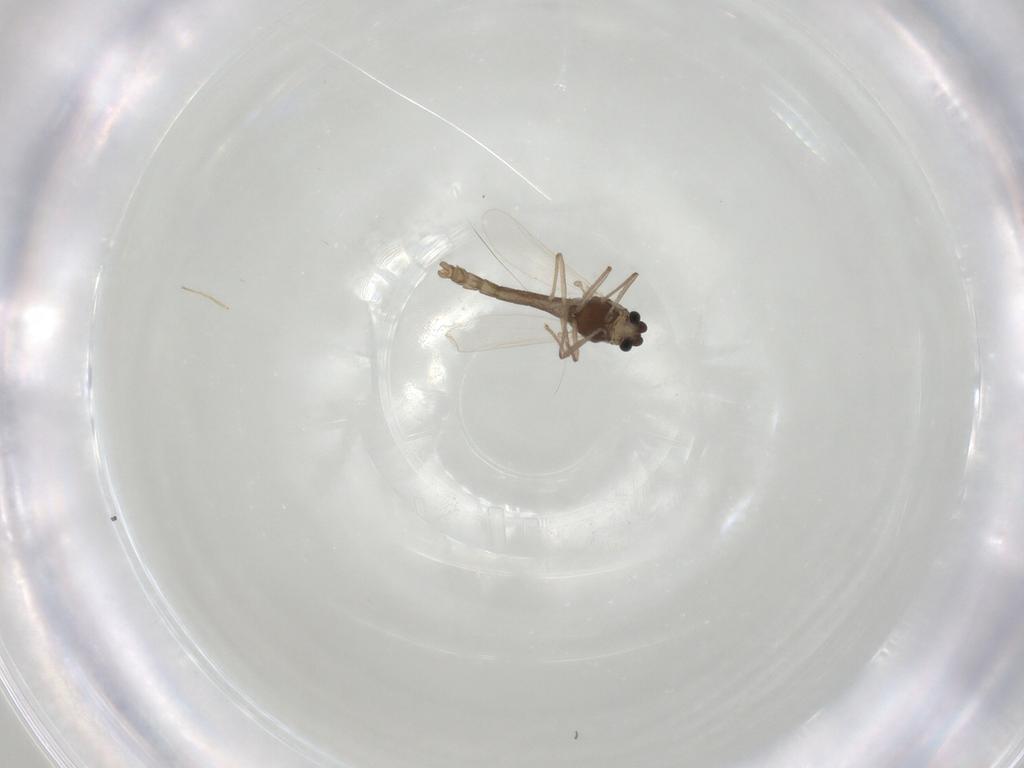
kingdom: Animalia
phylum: Arthropoda
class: Insecta
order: Diptera
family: Chironomidae
